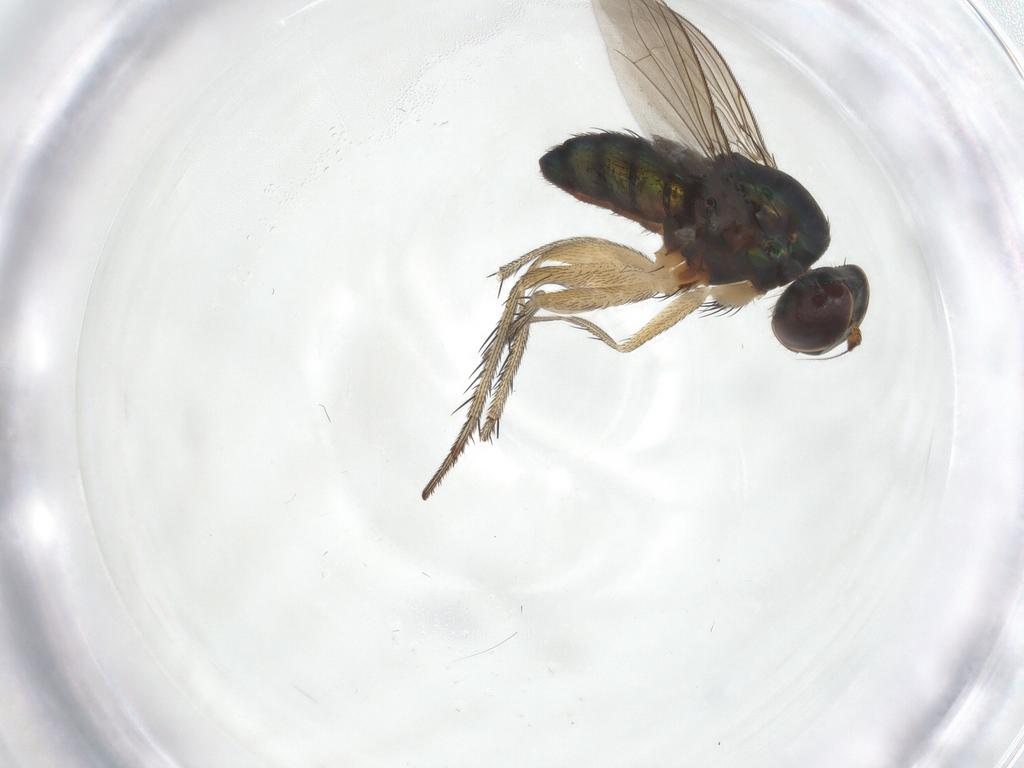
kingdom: Animalia
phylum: Arthropoda
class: Insecta
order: Diptera
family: Dolichopodidae
